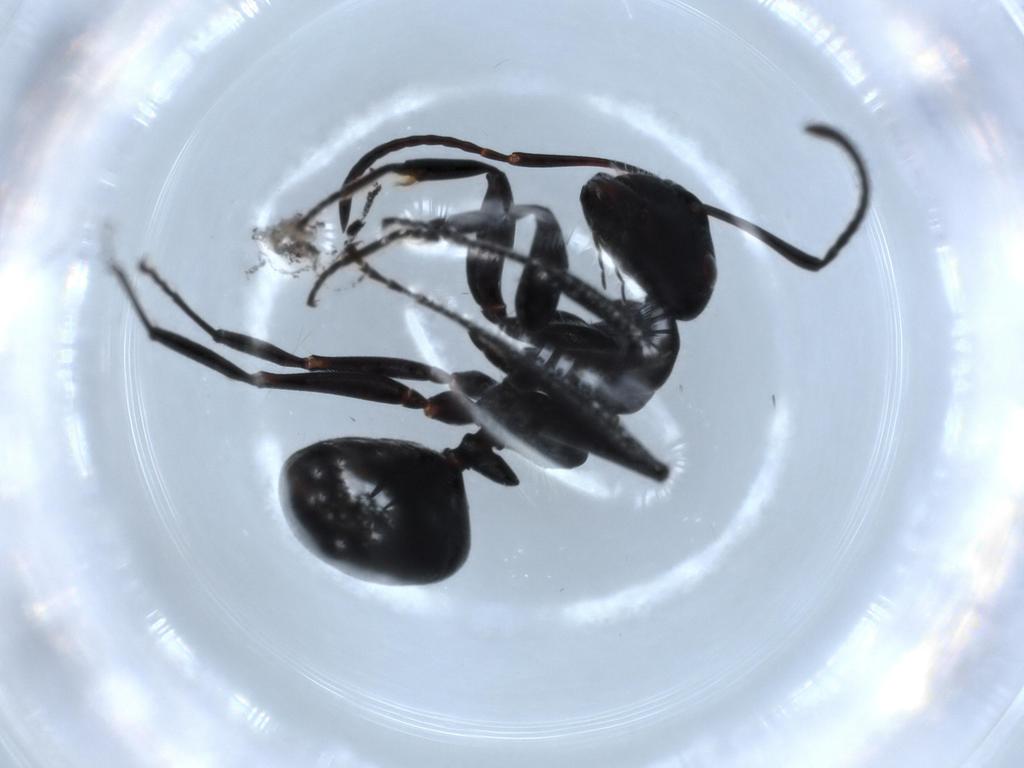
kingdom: Animalia
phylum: Arthropoda
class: Insecta
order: Hymenoptera
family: Formicidae
